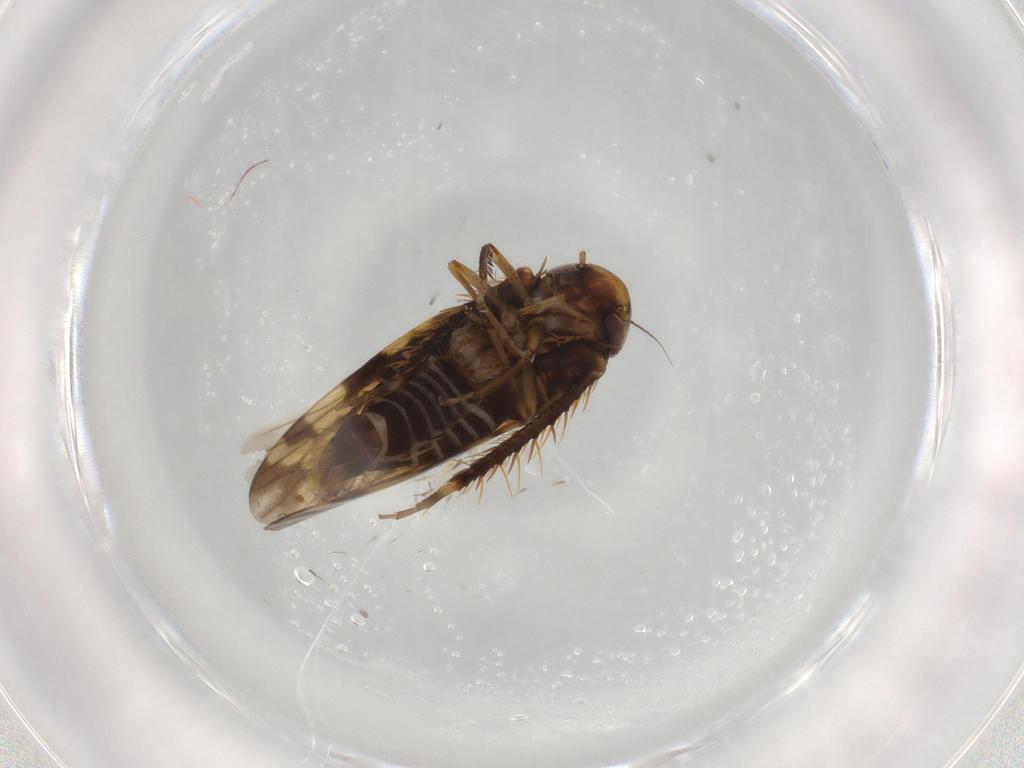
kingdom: Animalia
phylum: Arthropoda
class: Insecta
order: Hemiptera
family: Cicadellidae
